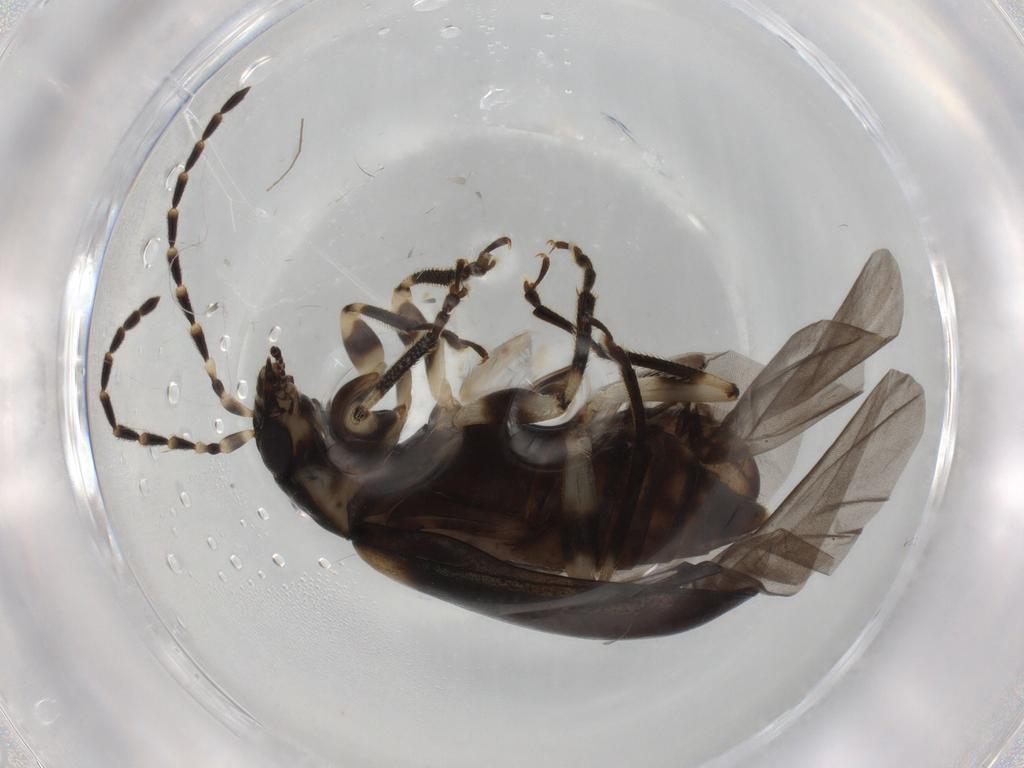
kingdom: Animalia
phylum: Arthropoda
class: Insecta
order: Coleoptera
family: Chrysomelidae
